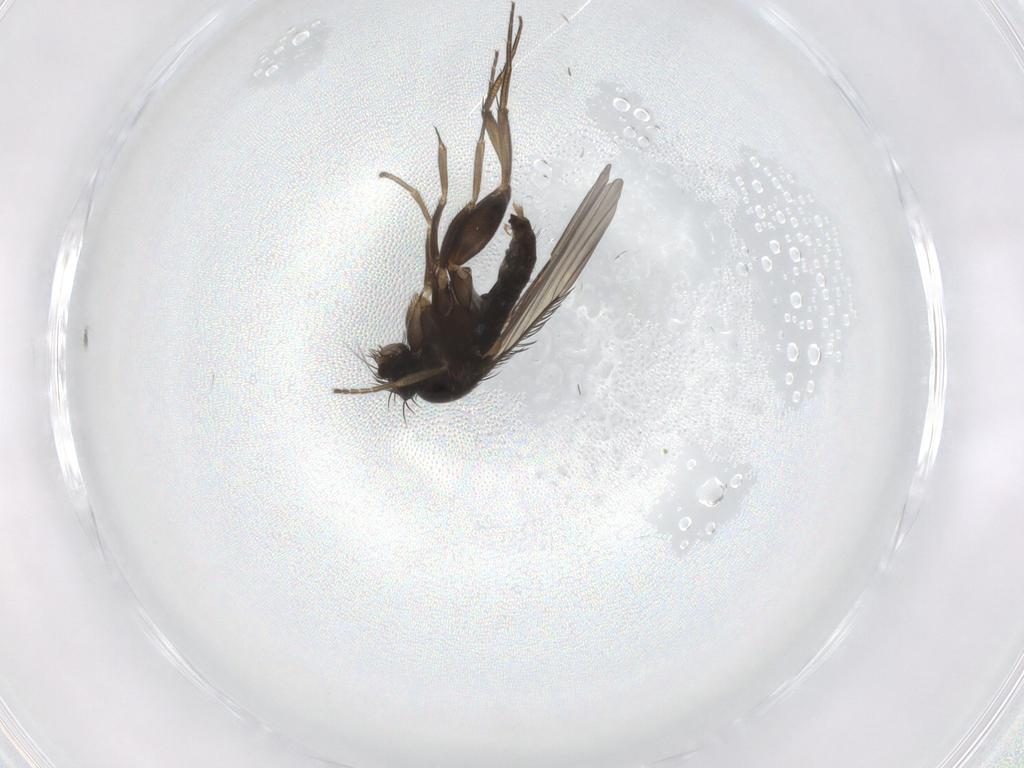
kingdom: Animalia
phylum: Arthropoda
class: Insecta
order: Diptera
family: Phoridae
